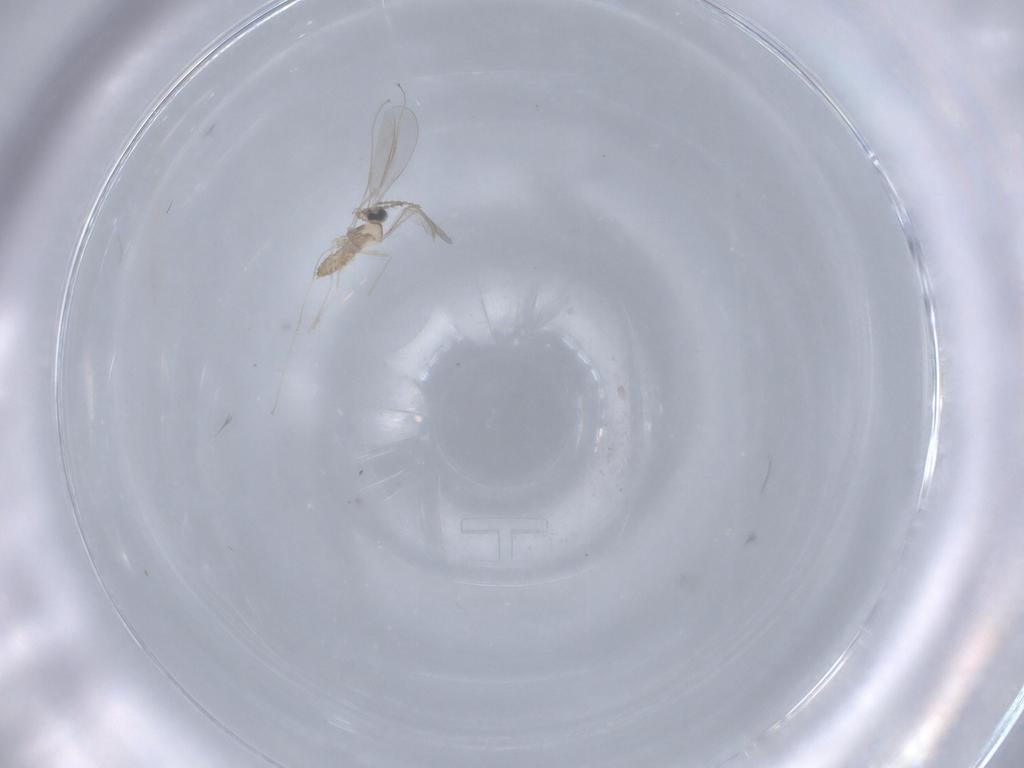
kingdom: Animalia
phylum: Arthropoda
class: Insecta
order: Diptera
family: Cecidomyiidae
